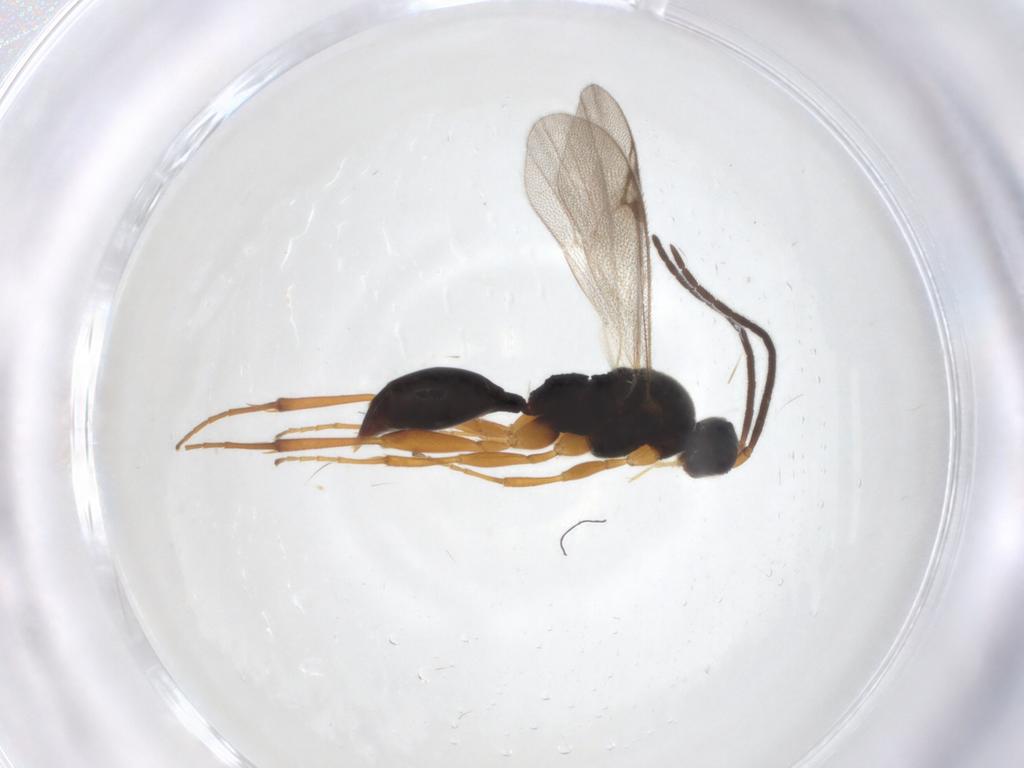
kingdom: Animalia
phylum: Arthropoda
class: Insecta
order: Hymenoptera
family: Proctotrupidae
